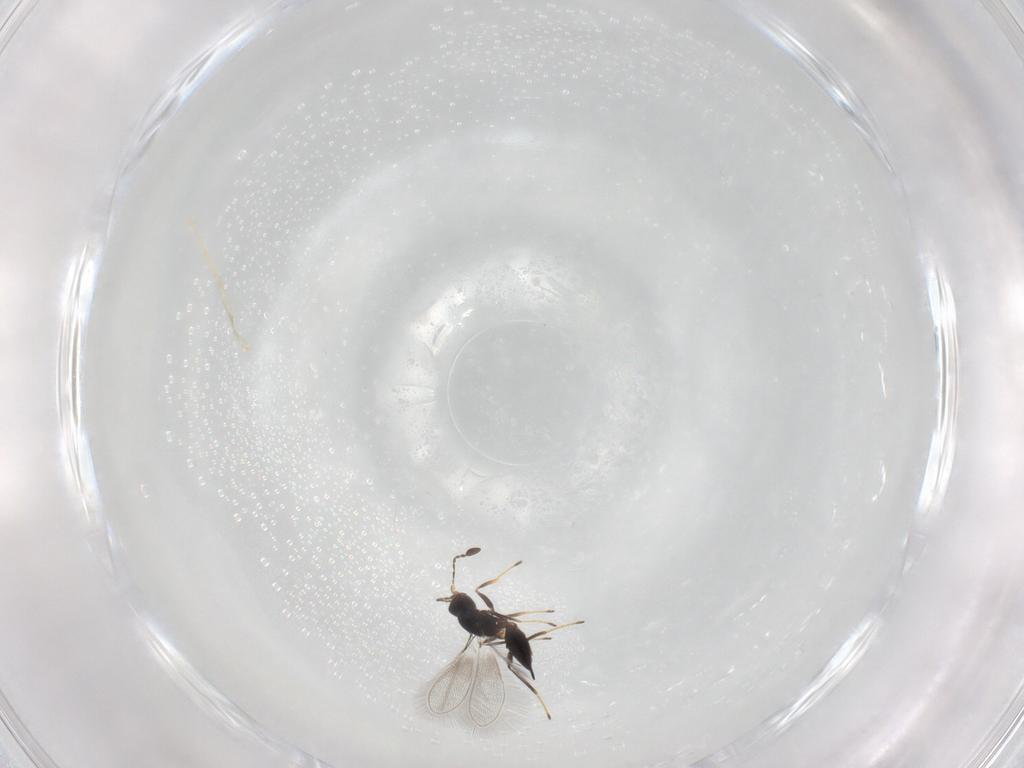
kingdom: Animalia
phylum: Arthropoda
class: Insecta
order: Hymenoptera
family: Mymaridae
